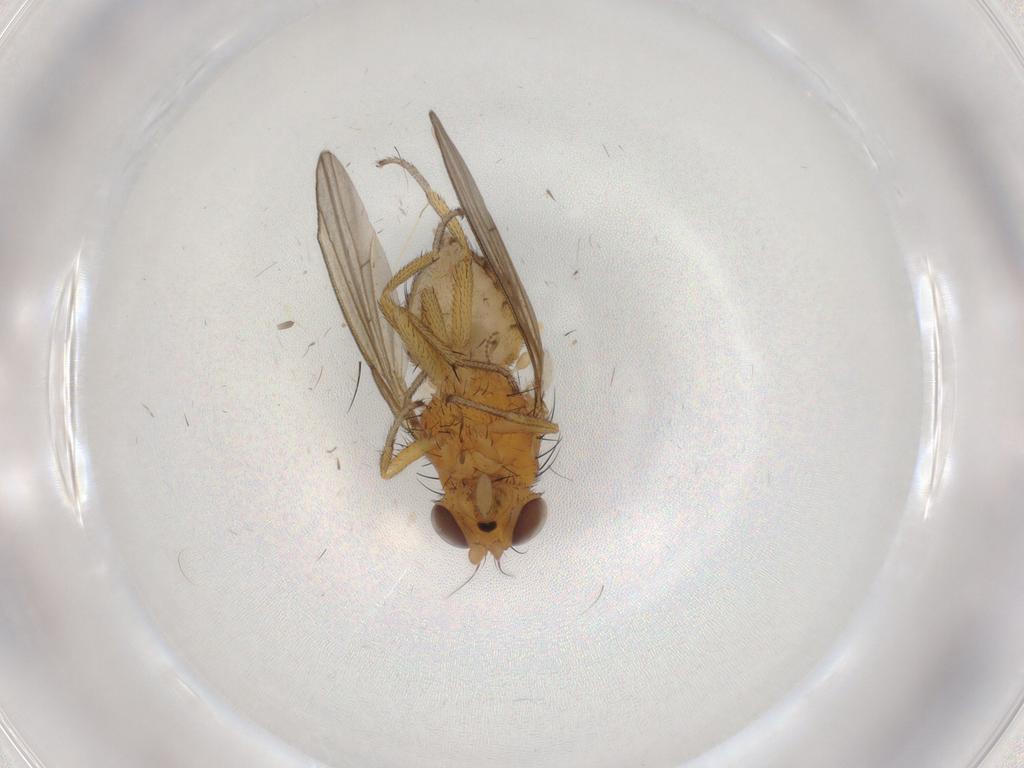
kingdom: Animalia
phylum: Arthropoda
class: Insecta
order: Diptera
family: Cecidomyiidae
